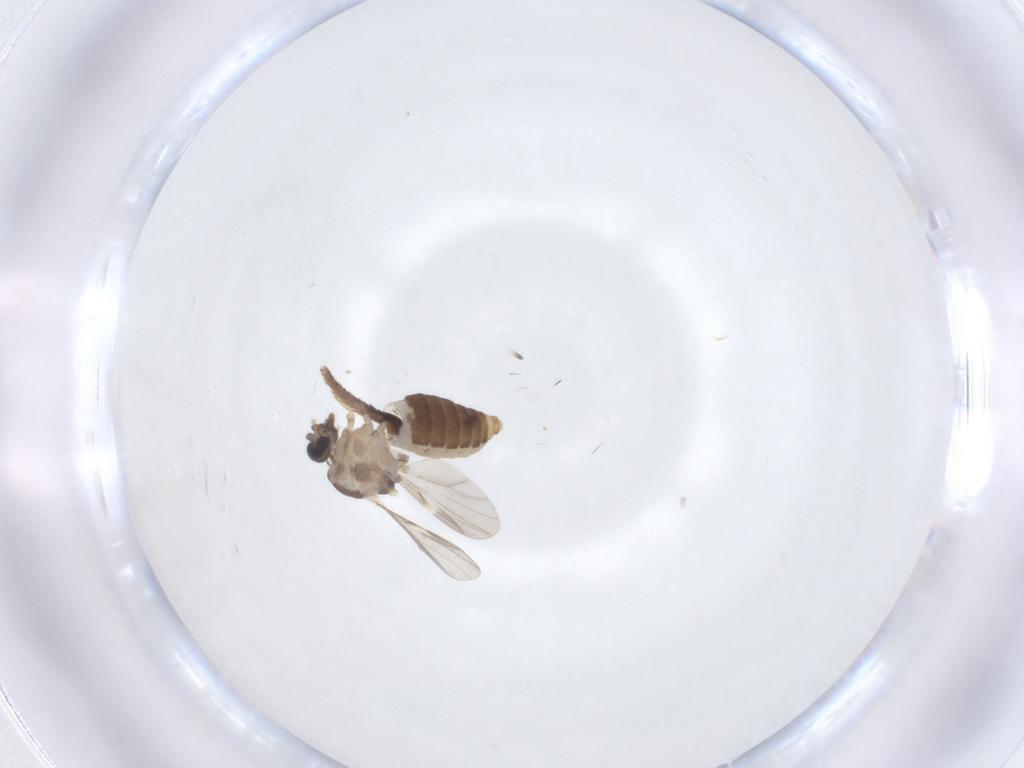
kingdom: Animalia
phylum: Arthropoda
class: Insecta
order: Diptera
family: Ceratopogonidae
